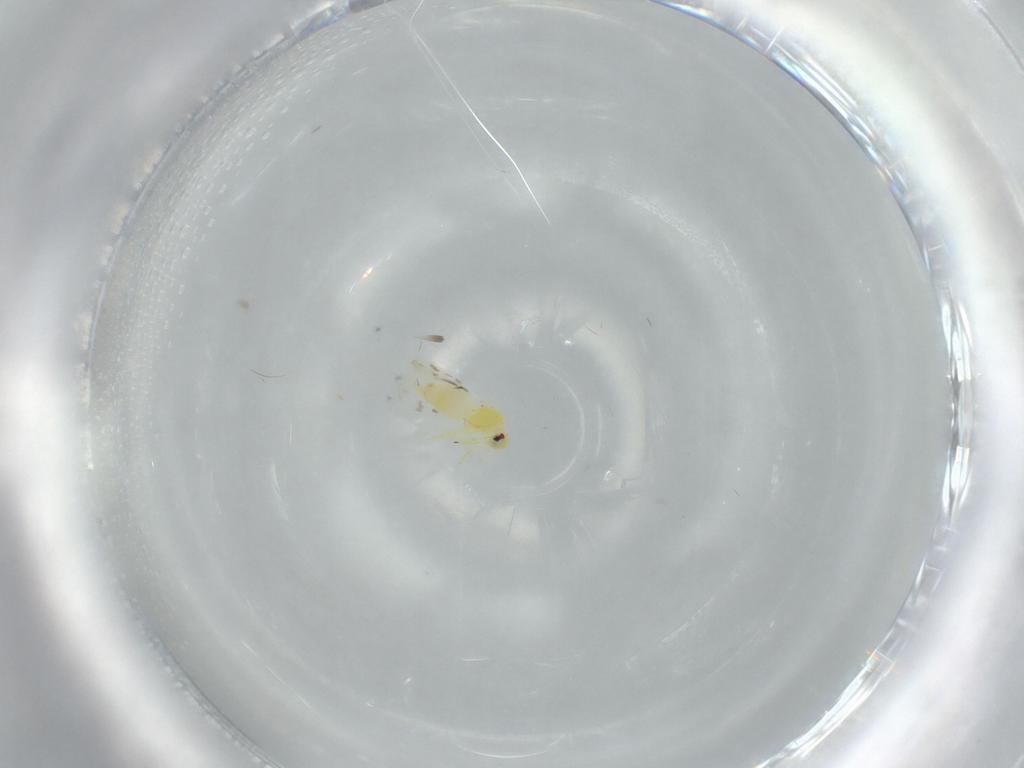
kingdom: Animalia
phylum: Arthropoda
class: Insecta
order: Hemiptera
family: Aleyrodidae
